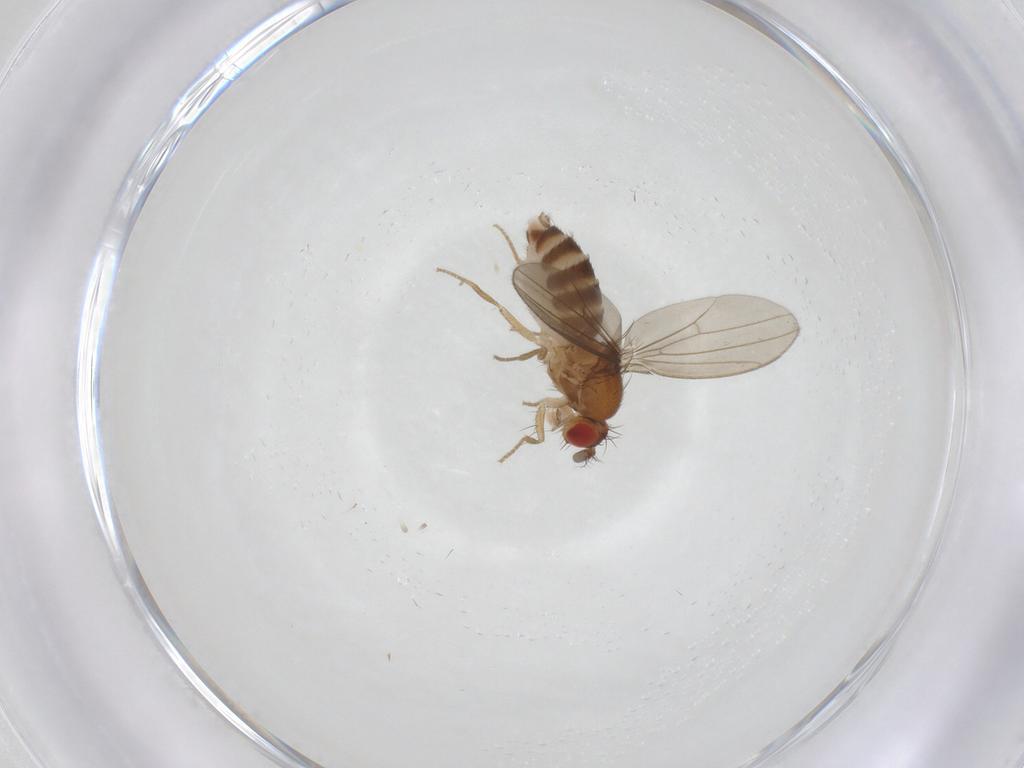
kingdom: Animalia
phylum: Arthropoda
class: Insecta
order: Diptera
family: Drosophilidae
